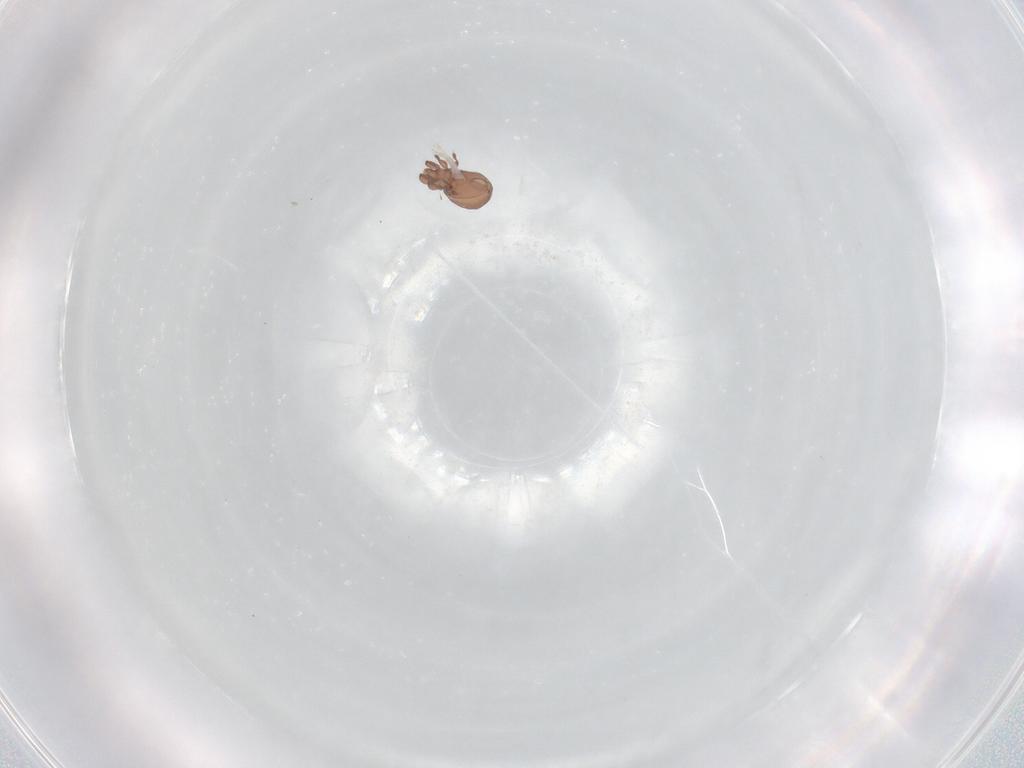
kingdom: Animalia
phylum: Arthropoda
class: Arachnida
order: Sarcoptiformes
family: Eremaeidae
